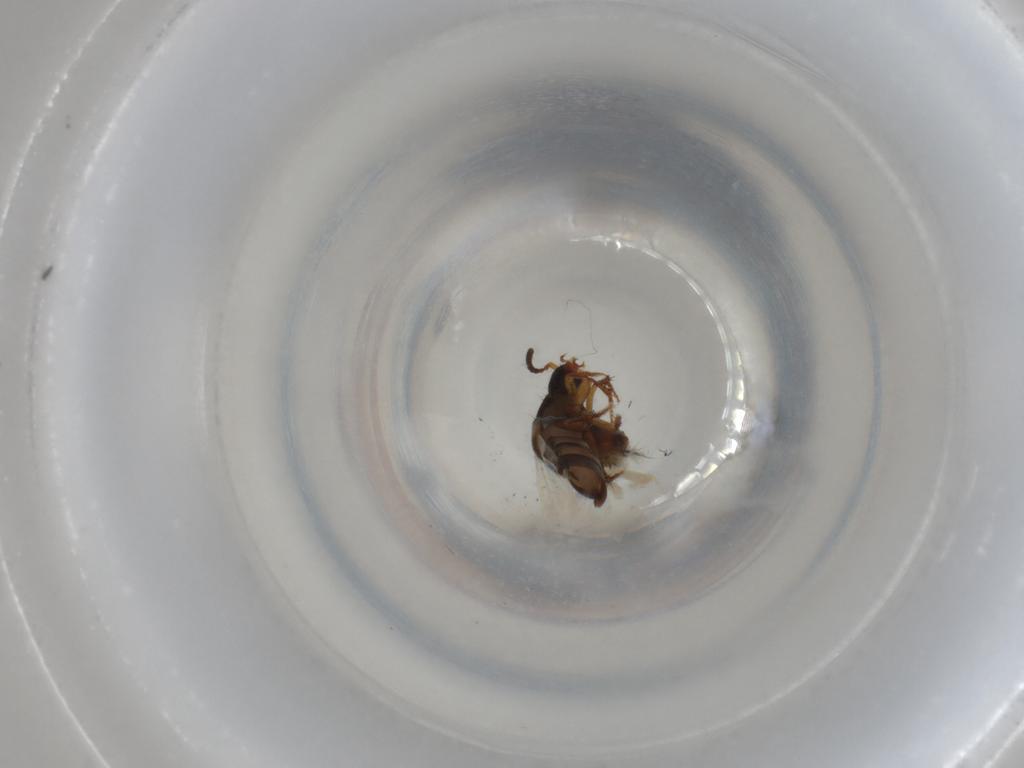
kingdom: Animalia
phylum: Arthropoda
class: Insecta
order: Coleoptera
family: Staphylinidae
